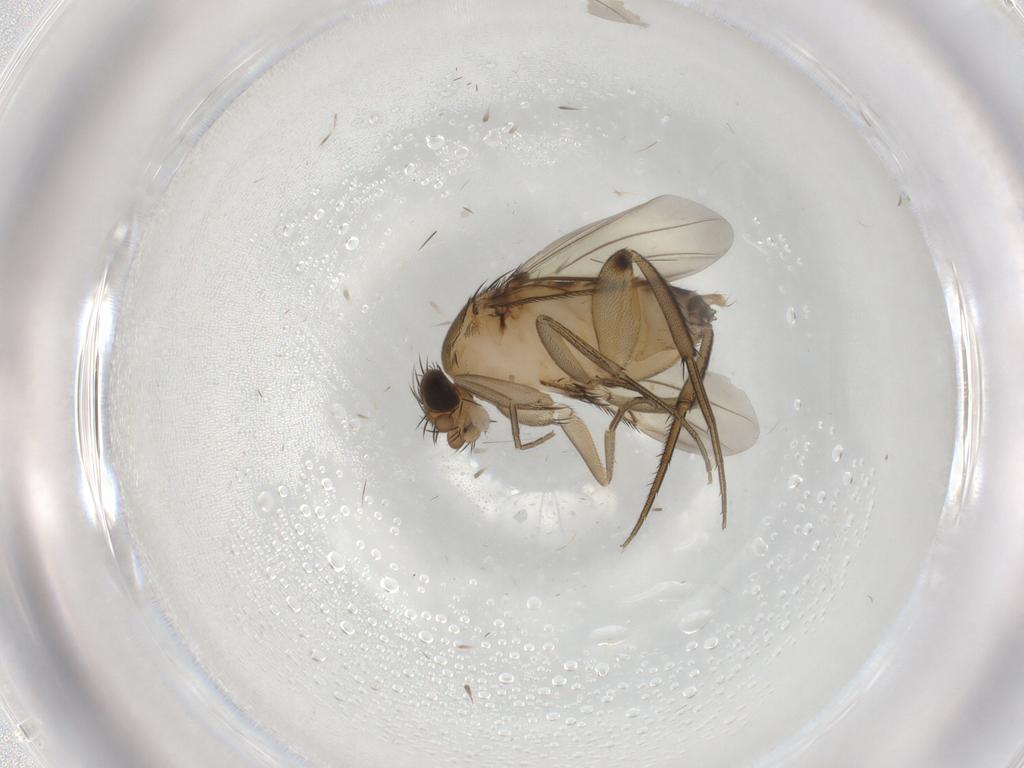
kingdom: Animalia
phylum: Arthropoda
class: Insecta
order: Diptera
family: Phoridae
